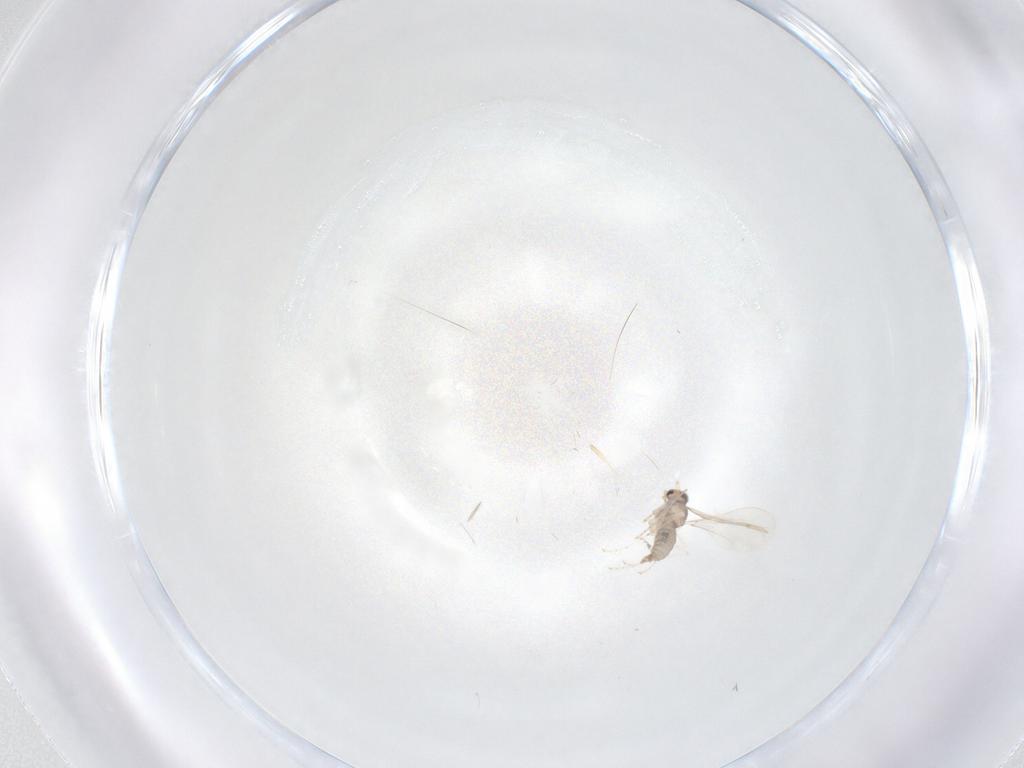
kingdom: Animalia
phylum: Arthropoda
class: Insecta
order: Diptera
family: Cecidomyiidae
